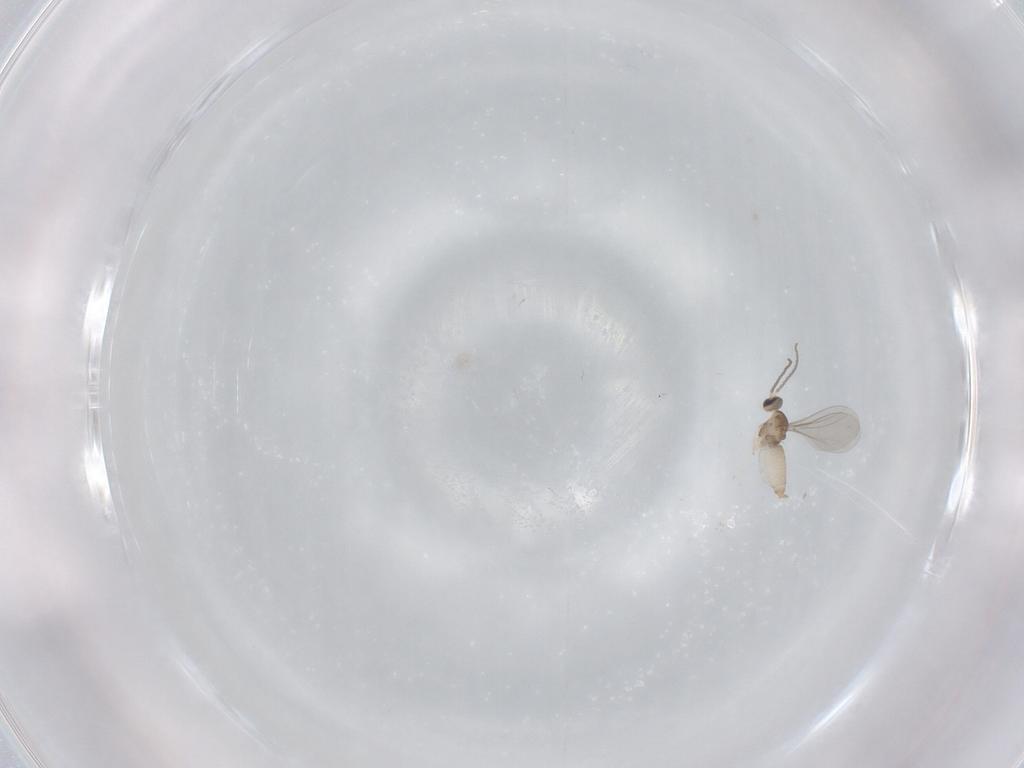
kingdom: Animalia
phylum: Arthropoda
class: Insecta
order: Diptera
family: Cecidomyiidae
